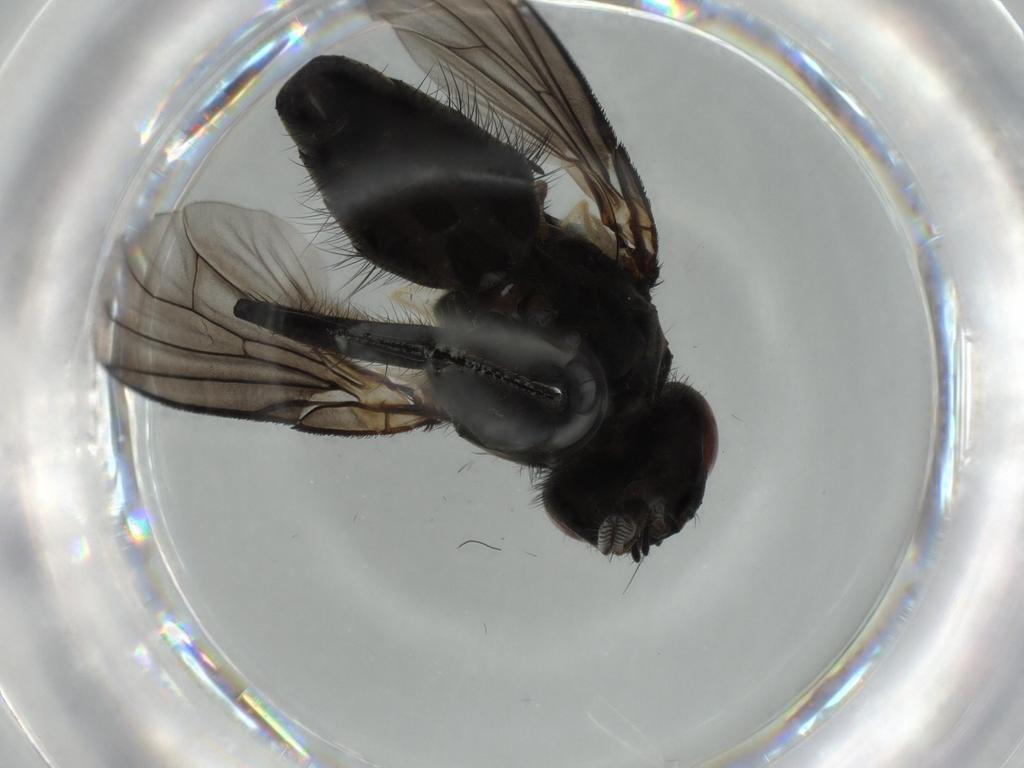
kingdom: Animalia
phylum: Arthropoda
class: Insecta
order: Diptera
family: Muscidae
